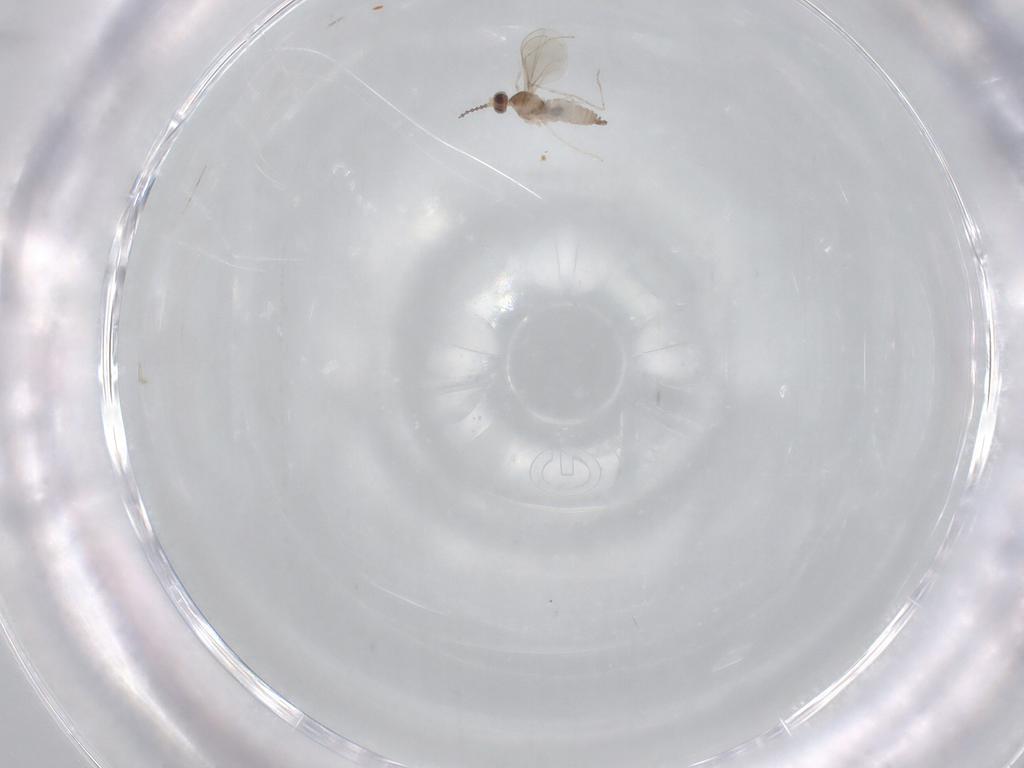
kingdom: Animalia
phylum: Arthropoda
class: Insecta
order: Diptera
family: Cecidomyiidae
